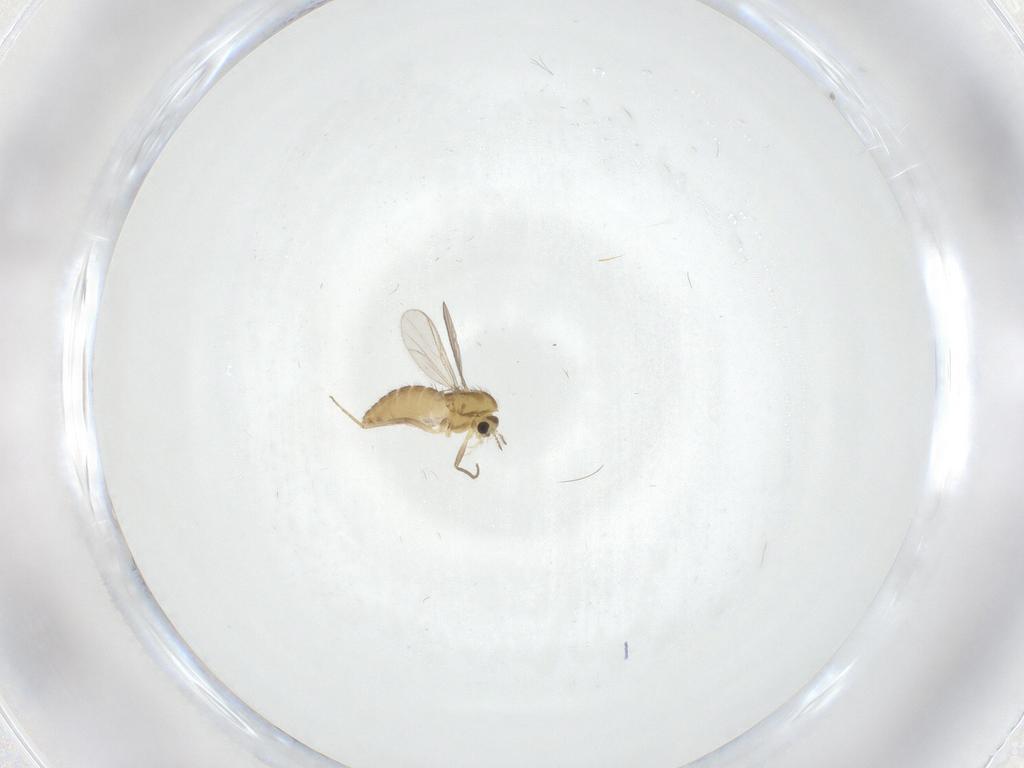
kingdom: Animalia
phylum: Arthropoda
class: Insecta
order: Diptera
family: Chironomidae
